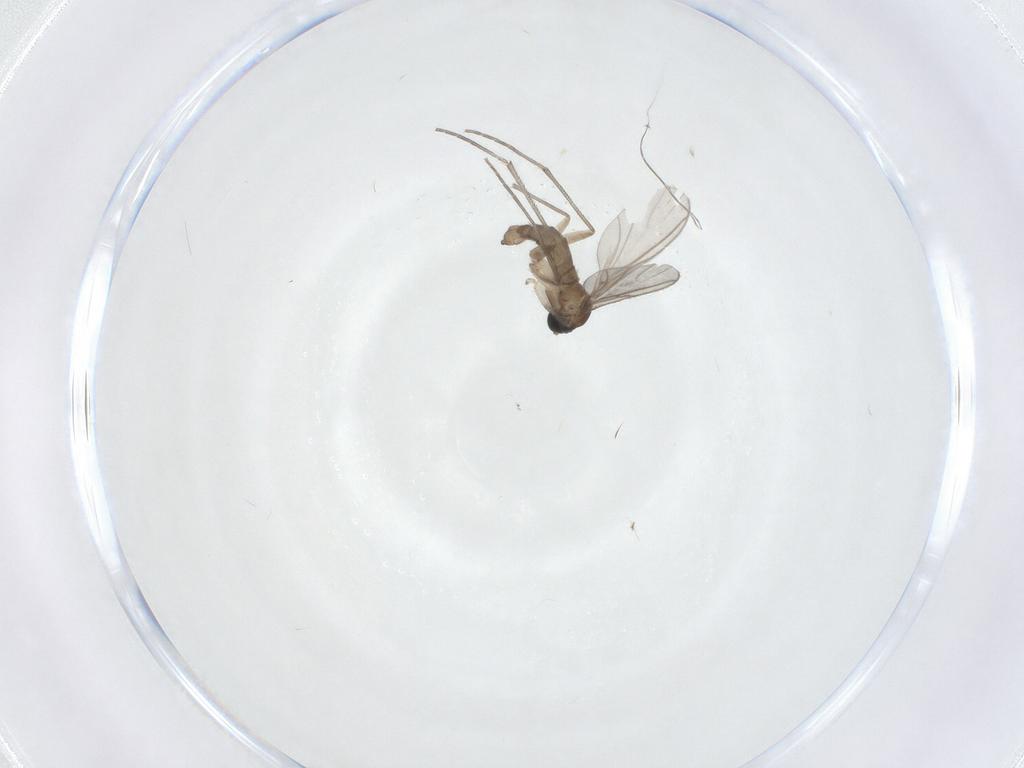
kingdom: Animalia
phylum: Arthropoda
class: Insecta
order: Diptera
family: Sciaridae
